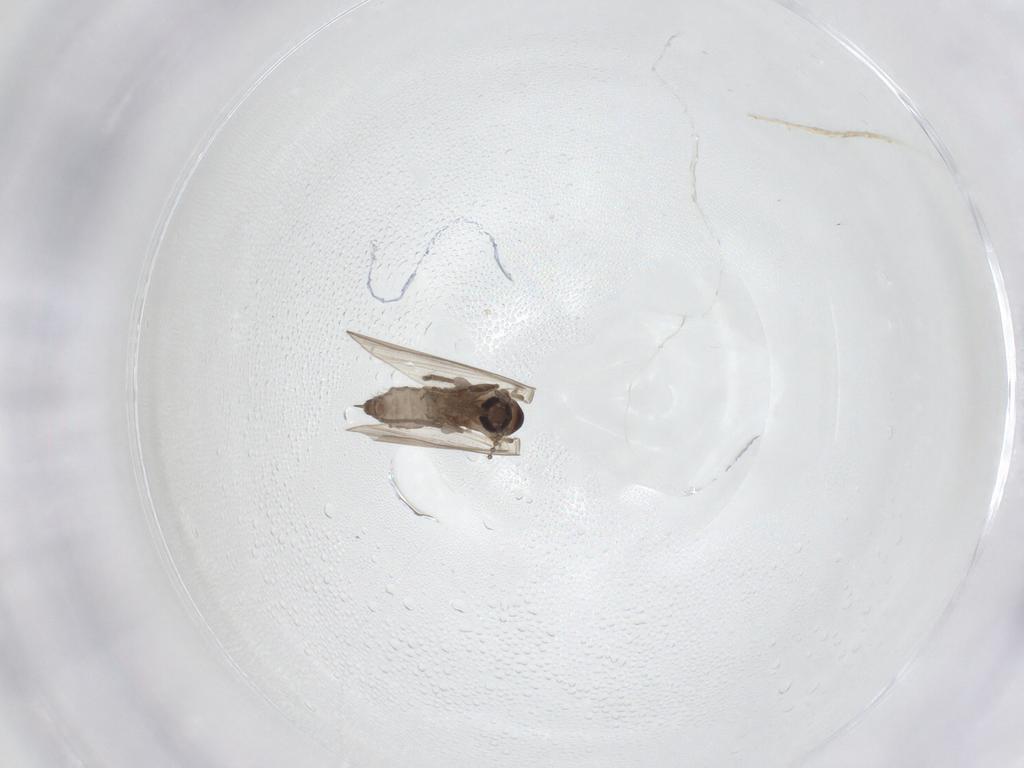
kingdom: Animalia
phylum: Arthropoda
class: Insecta
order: Diptera
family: Psychodidae
